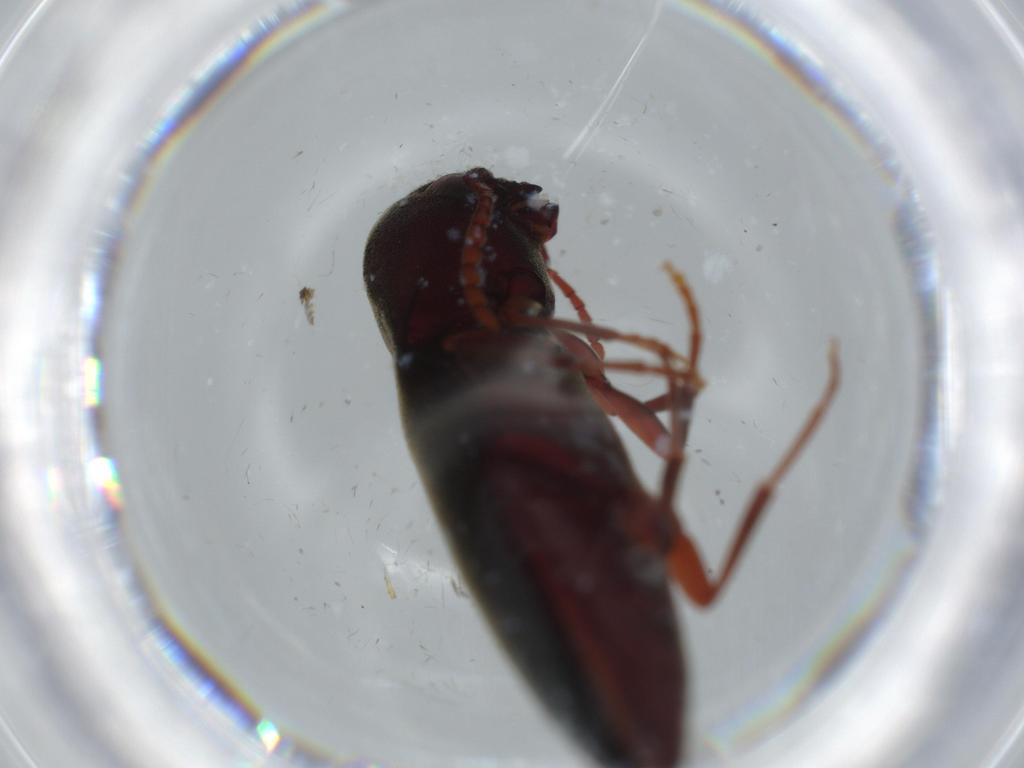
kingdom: Animalia
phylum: Arthropoda
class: Insecta
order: Coleoptera
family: Eucnemidae
